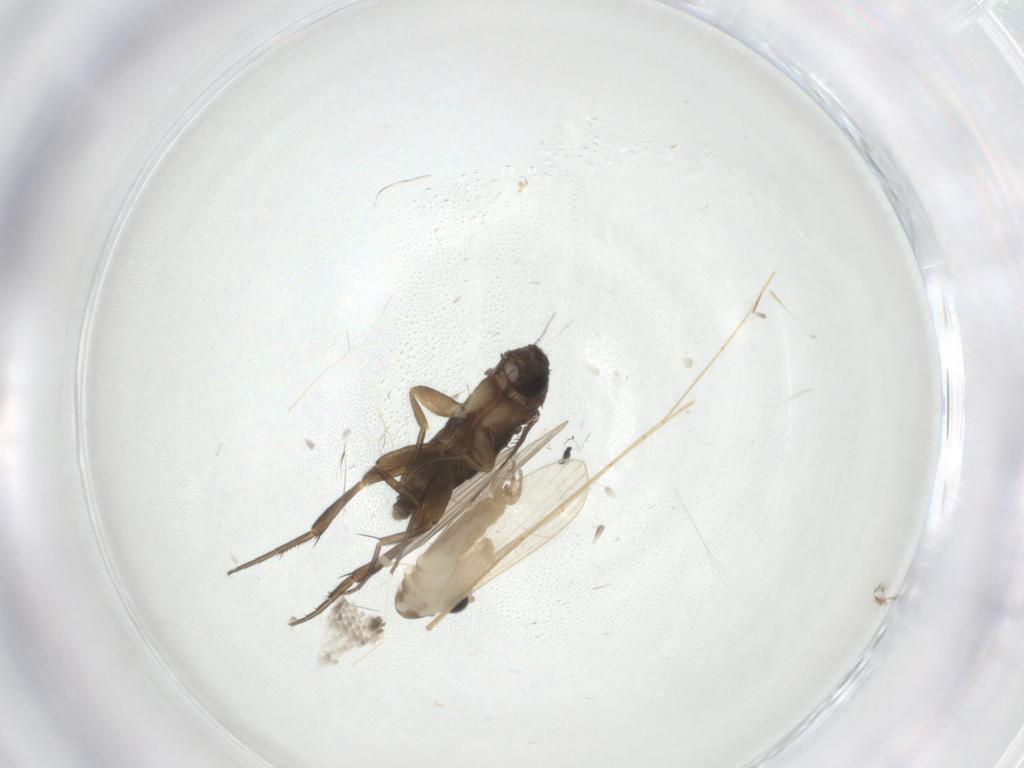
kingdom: Animalia
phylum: Arthropoda
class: Insecta
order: Diptera
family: Psychodidae
